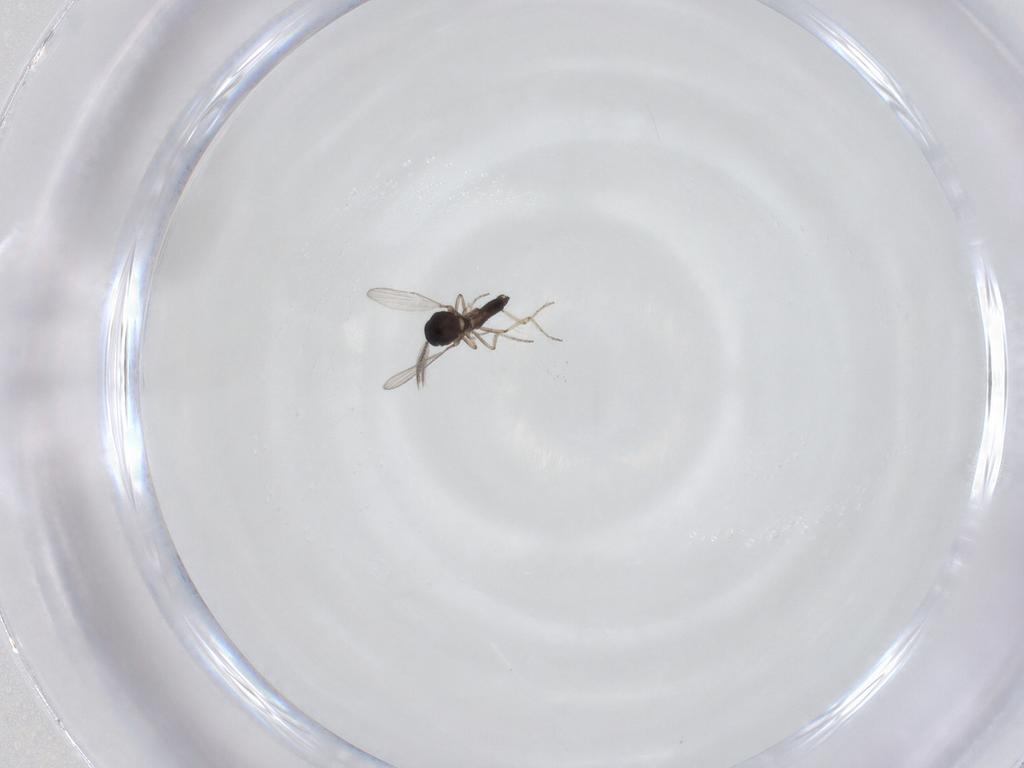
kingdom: Animalia
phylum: Arthropoda
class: Insecta
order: Diptera
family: Ceratopogonidae
